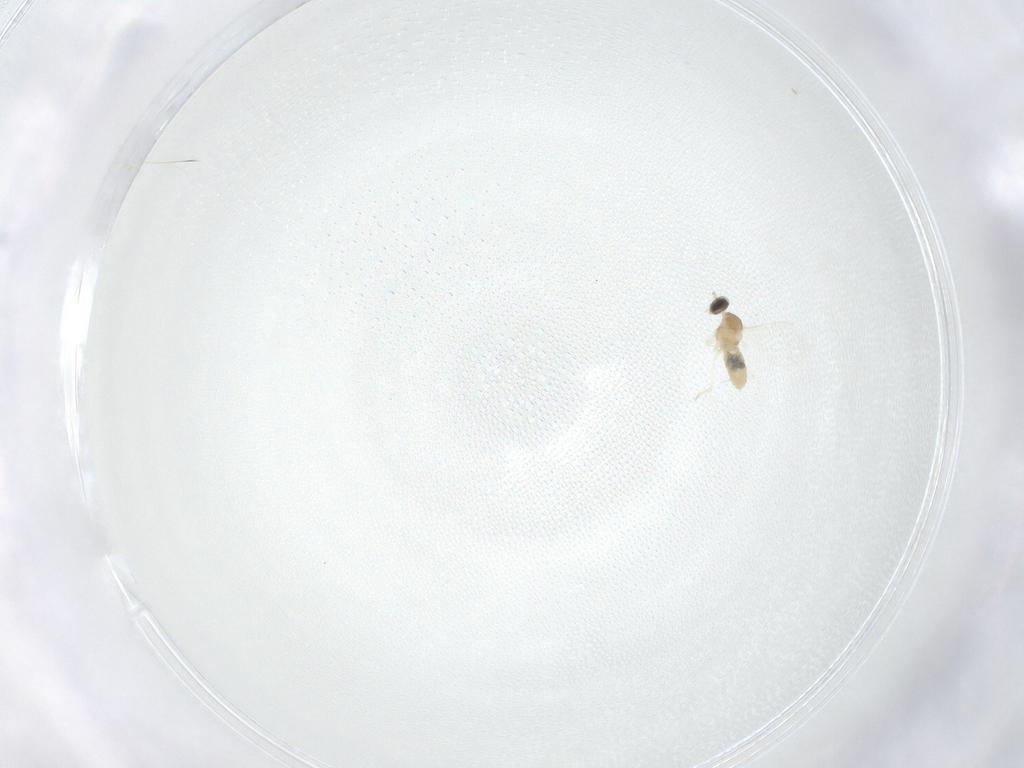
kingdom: Animalia
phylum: Arthropoda
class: Insecta
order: Diptera
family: Cecidomyiidae
